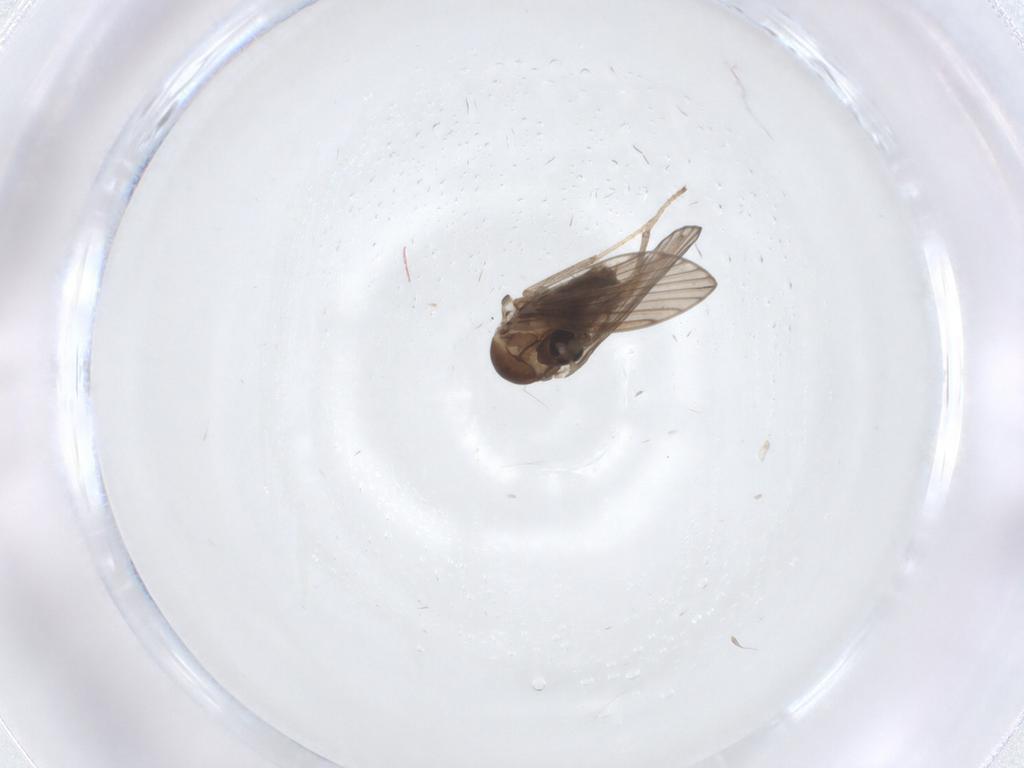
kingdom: Animalia
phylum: Arthropoda
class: Insecta
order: Diptera
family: Psychodidae
